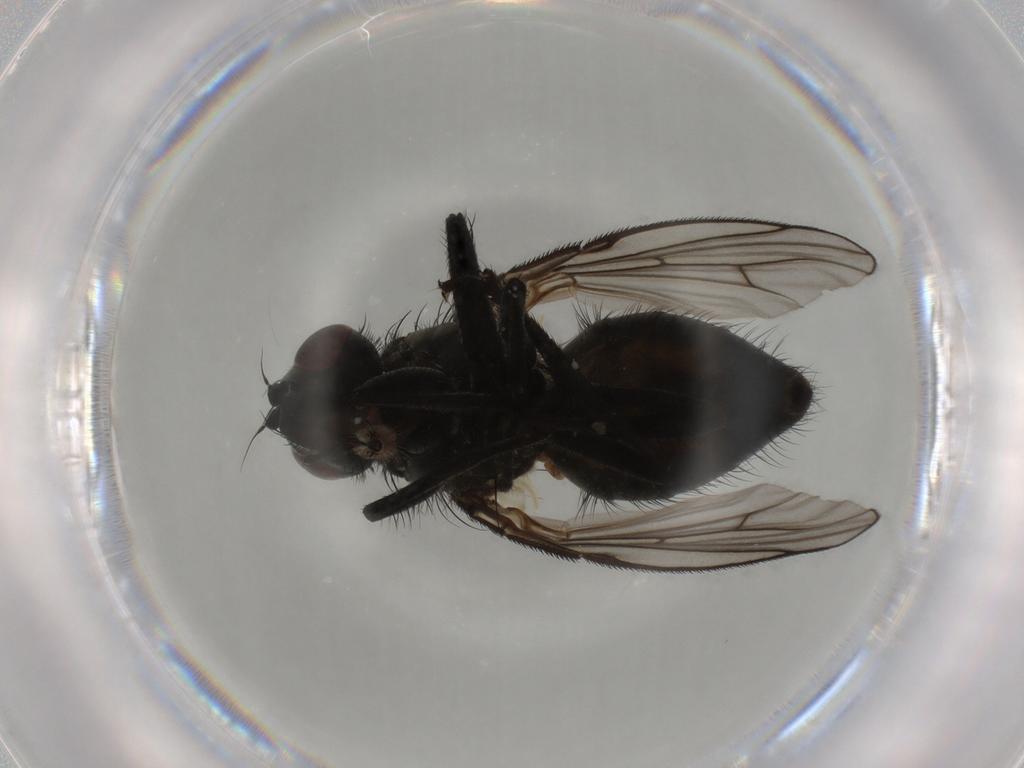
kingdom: Animalia
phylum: Arthropoda
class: Insecta
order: Diptera
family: Muscidae
